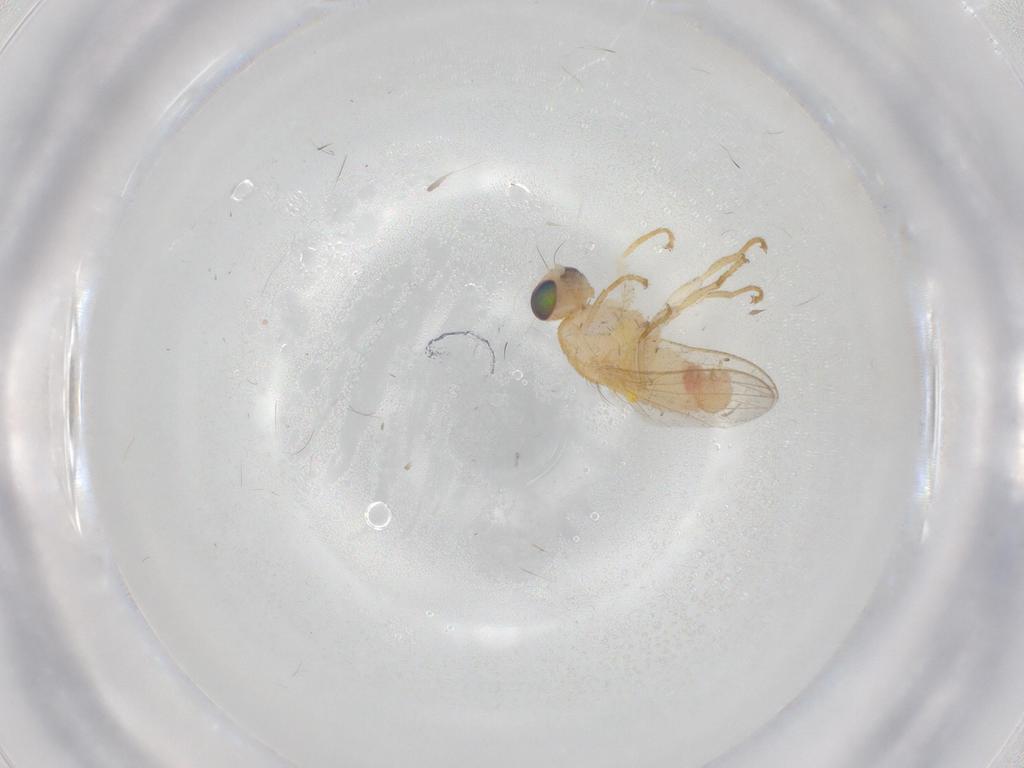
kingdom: Animalia
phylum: Arthropoda
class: Insecta
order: Diptera
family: Chyromyidae
